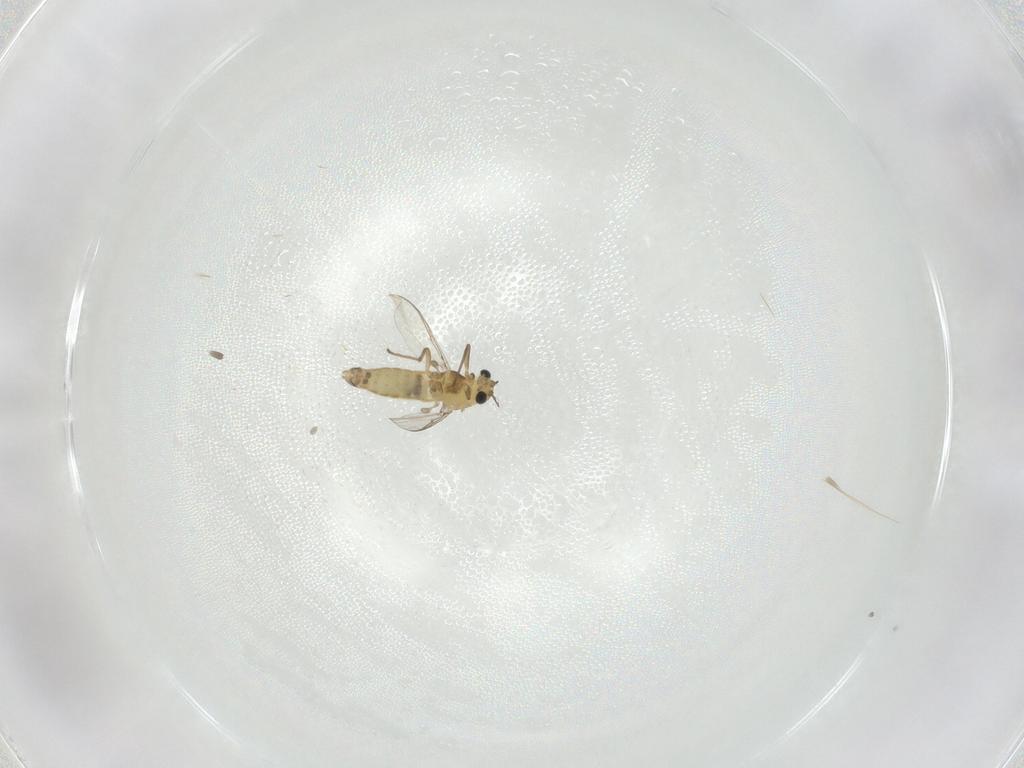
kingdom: Animalia
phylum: Arthropoda
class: Insecta
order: Diptera
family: Chironomidae
